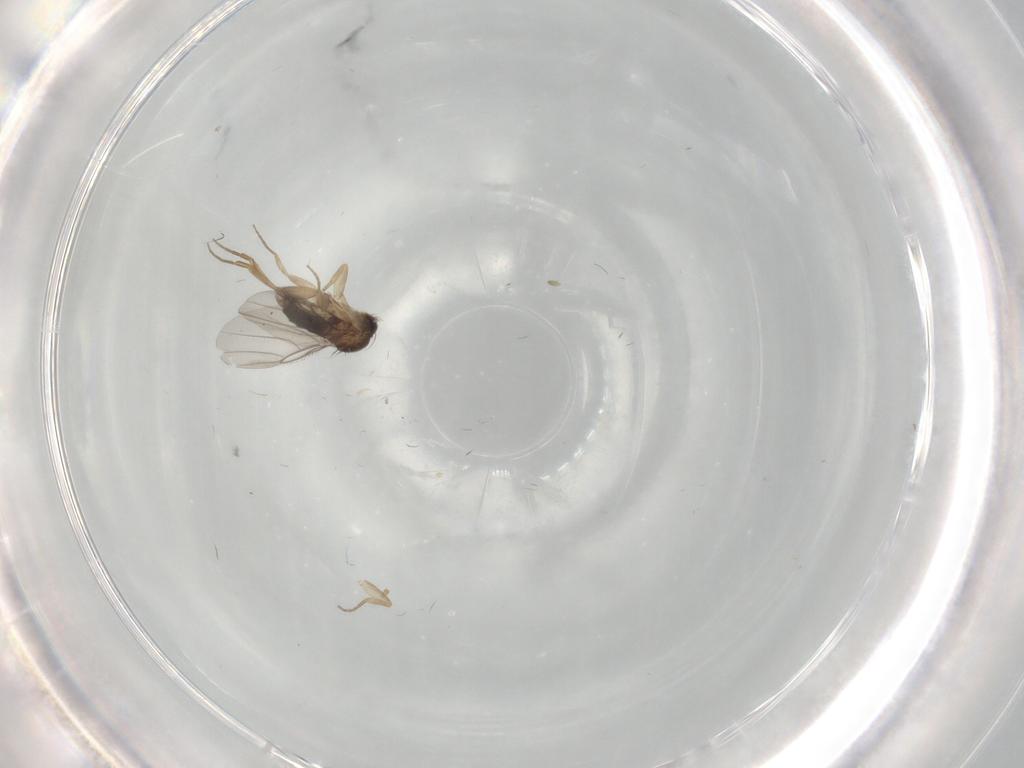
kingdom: Animalia
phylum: Arthropoda
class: Insecta
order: Diptera
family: Cecidomyiidae
